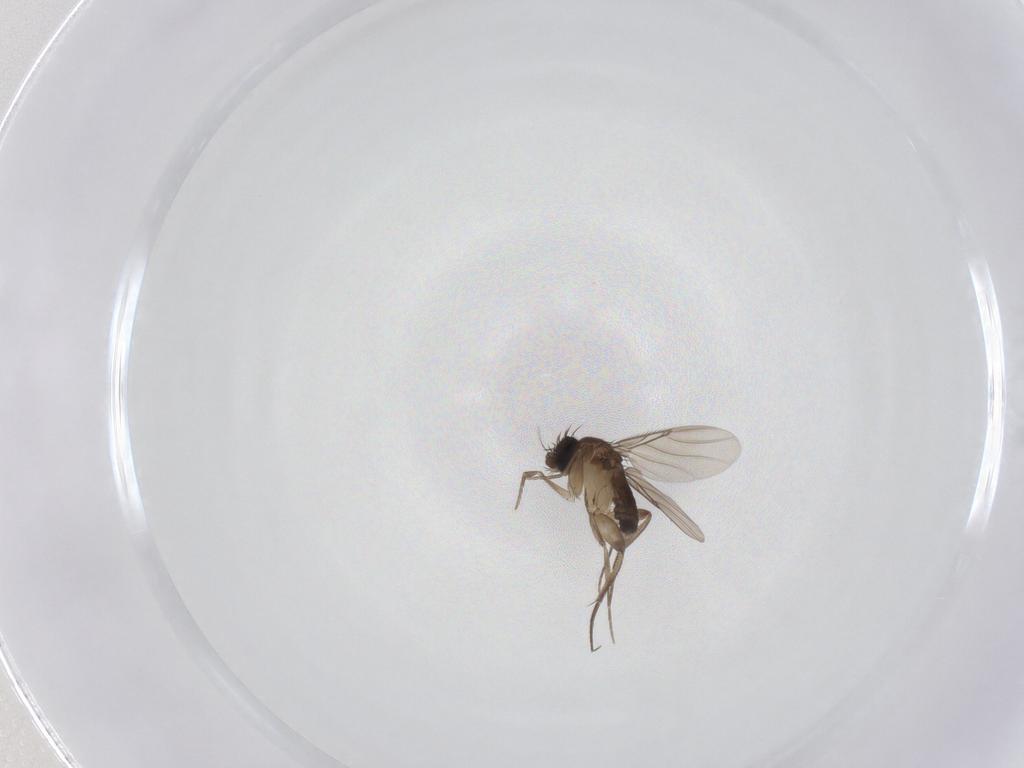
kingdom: Animalia
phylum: Arthropoda
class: Insecta
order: Diptera
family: Phoridae
